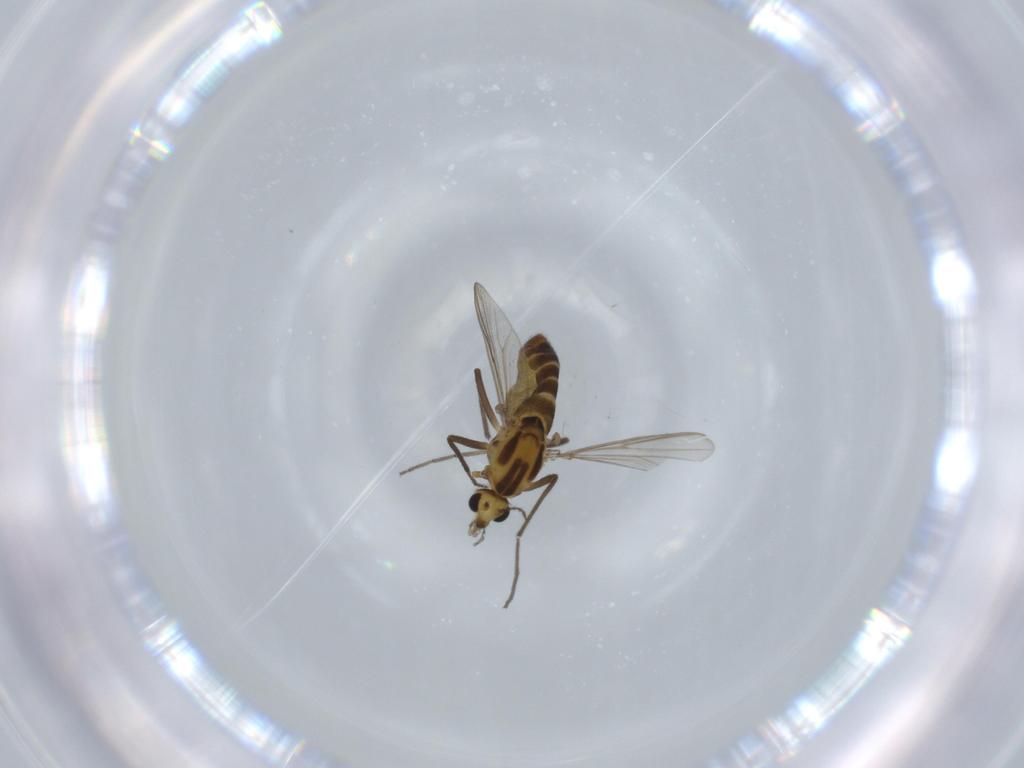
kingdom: Animalia
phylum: Arthropoda
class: Insecta
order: Diptera
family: Chironomidae
